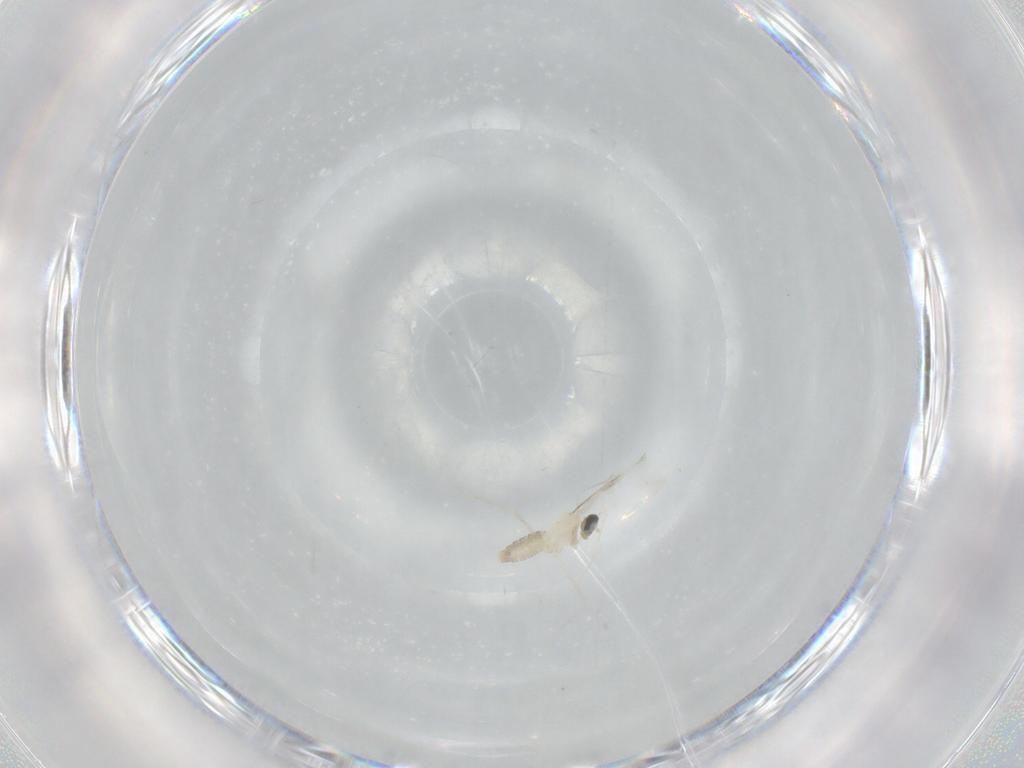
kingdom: Animalia
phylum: Arthropoda
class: Insecta
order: Diptera
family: Cecidomyiidae
